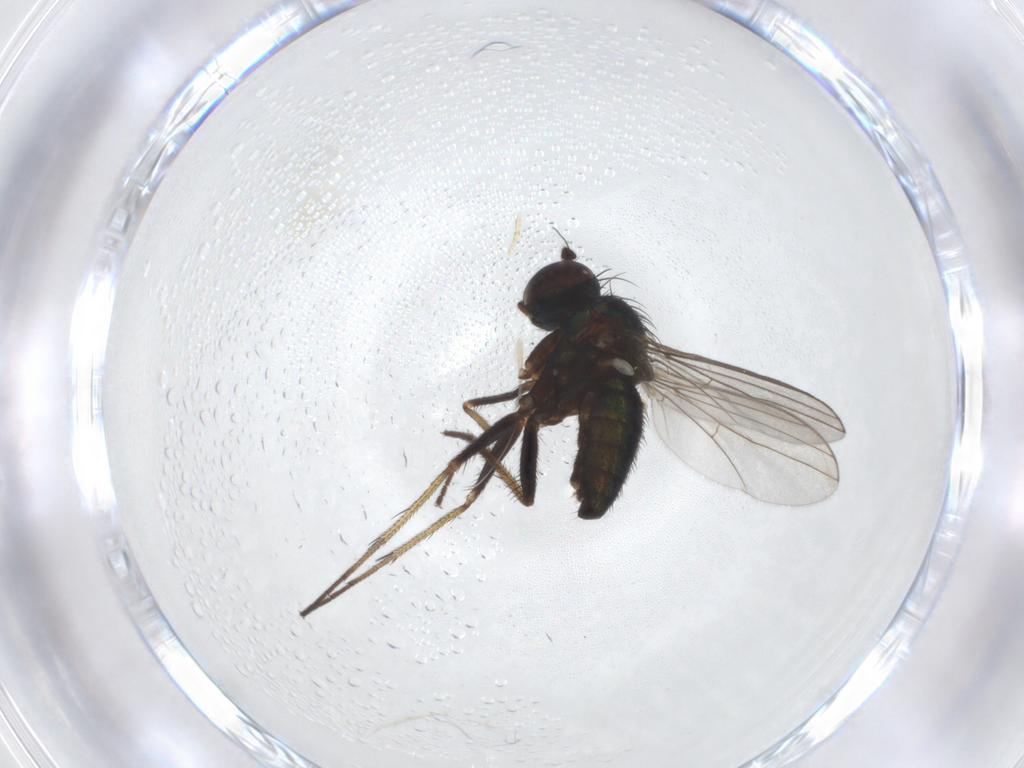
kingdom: Animalia
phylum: Arthropoda
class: Insecta
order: Diptera
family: Dolichopodidae
